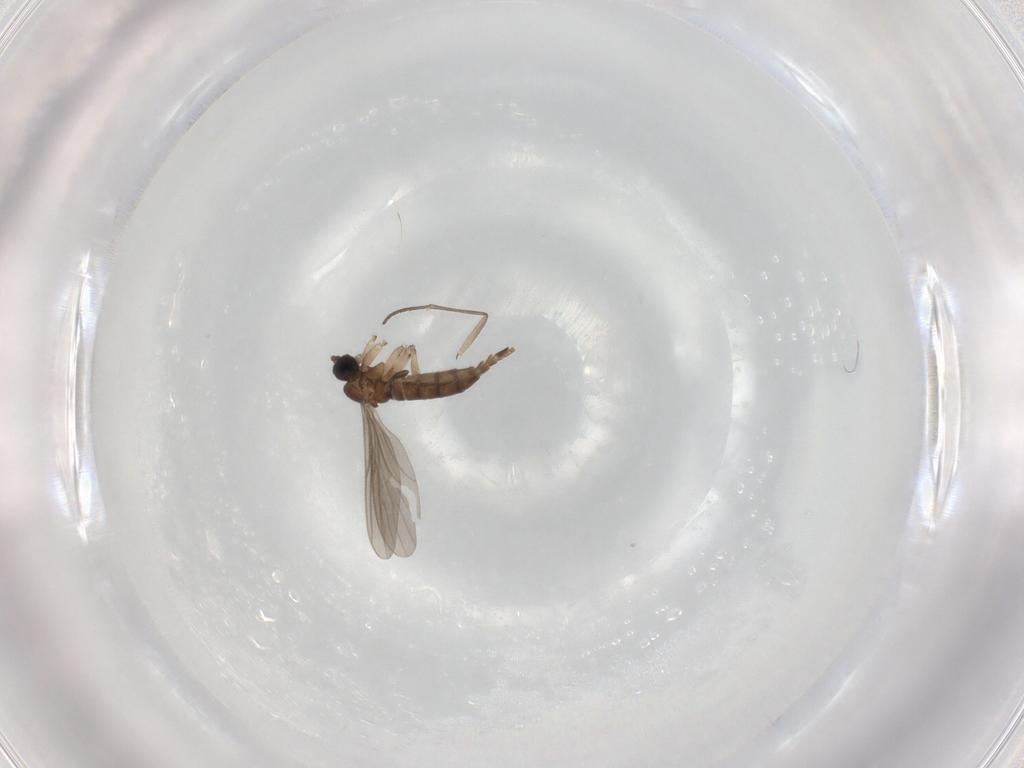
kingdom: Animalia
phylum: Arthropoda
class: Insecta
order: Diptera
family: Sciaridae
